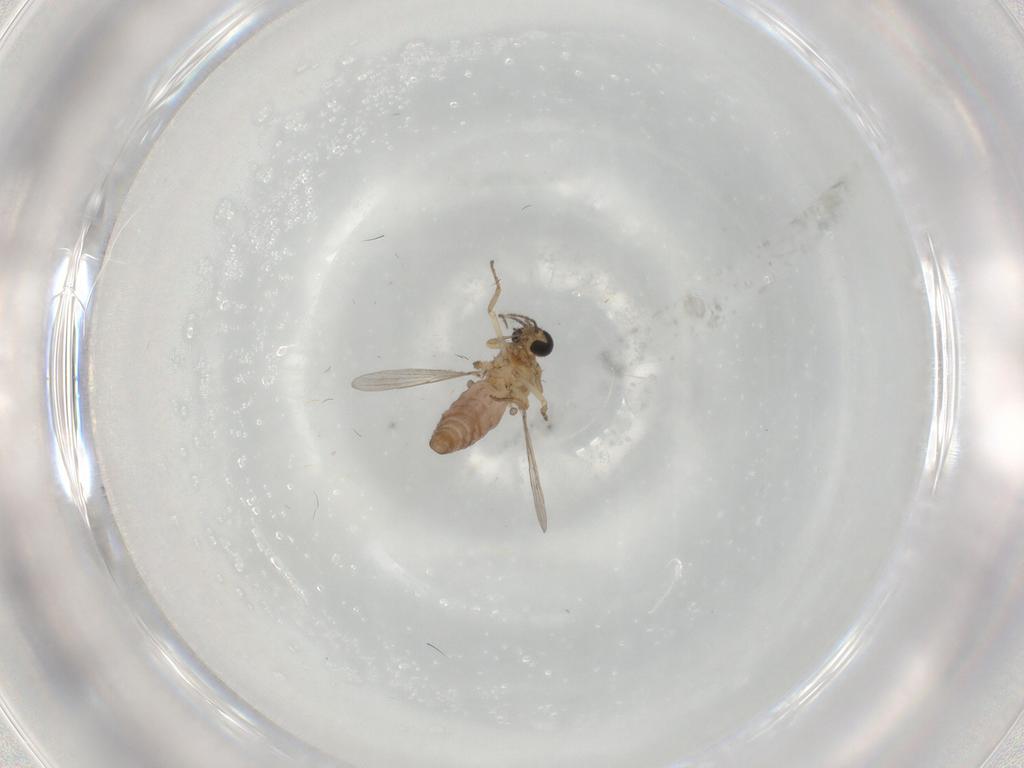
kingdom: Animalia
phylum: Arthropoda
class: Insecta
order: Diptera
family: Ceratopogonidae
